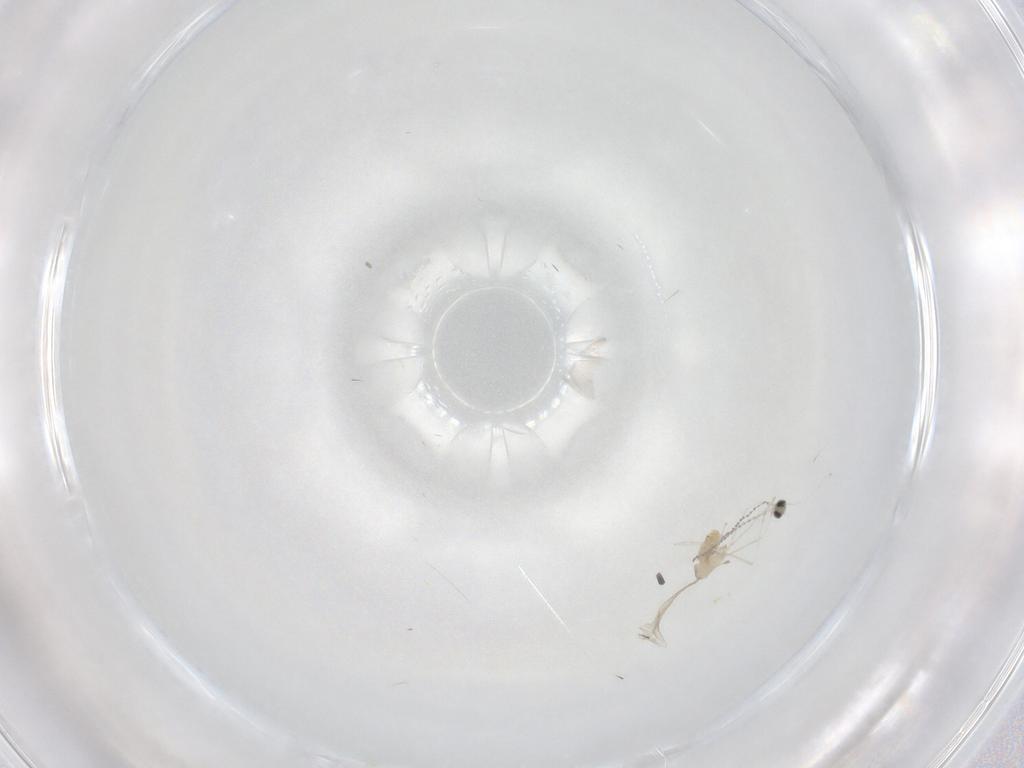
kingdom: Animalia
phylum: Arthropoda
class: Insecta
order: Diptera
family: Cecidomyiidae
